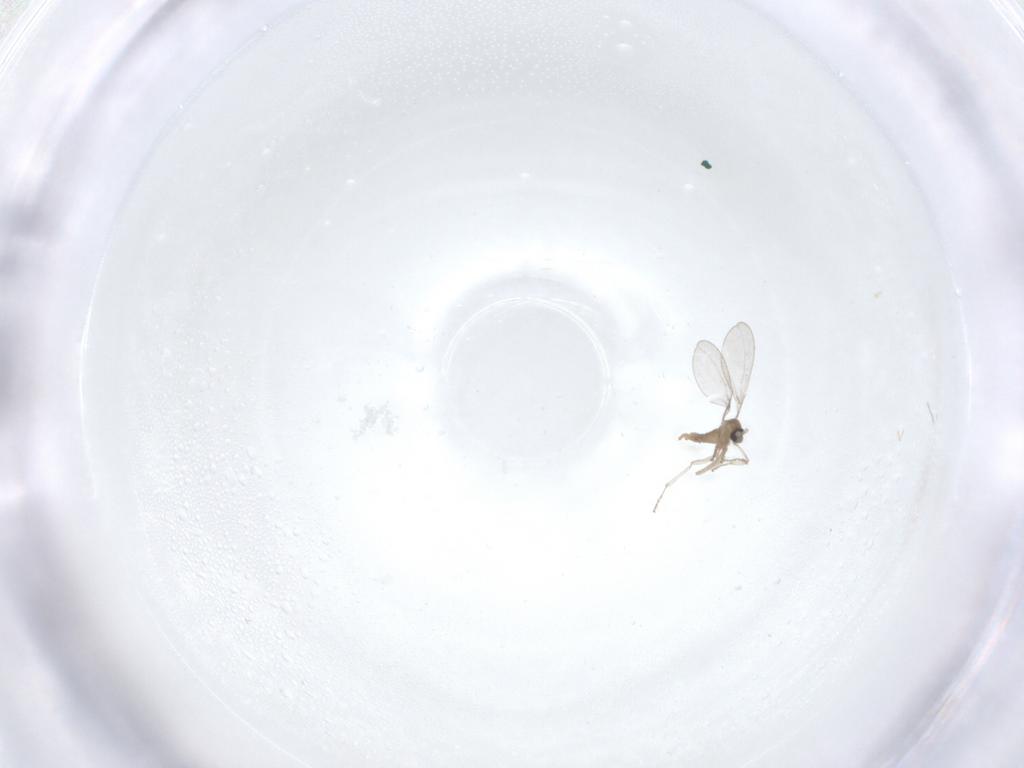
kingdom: Animalia
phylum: Arthropoda
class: Insecta
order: Diptera
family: Cecidomyiidae
